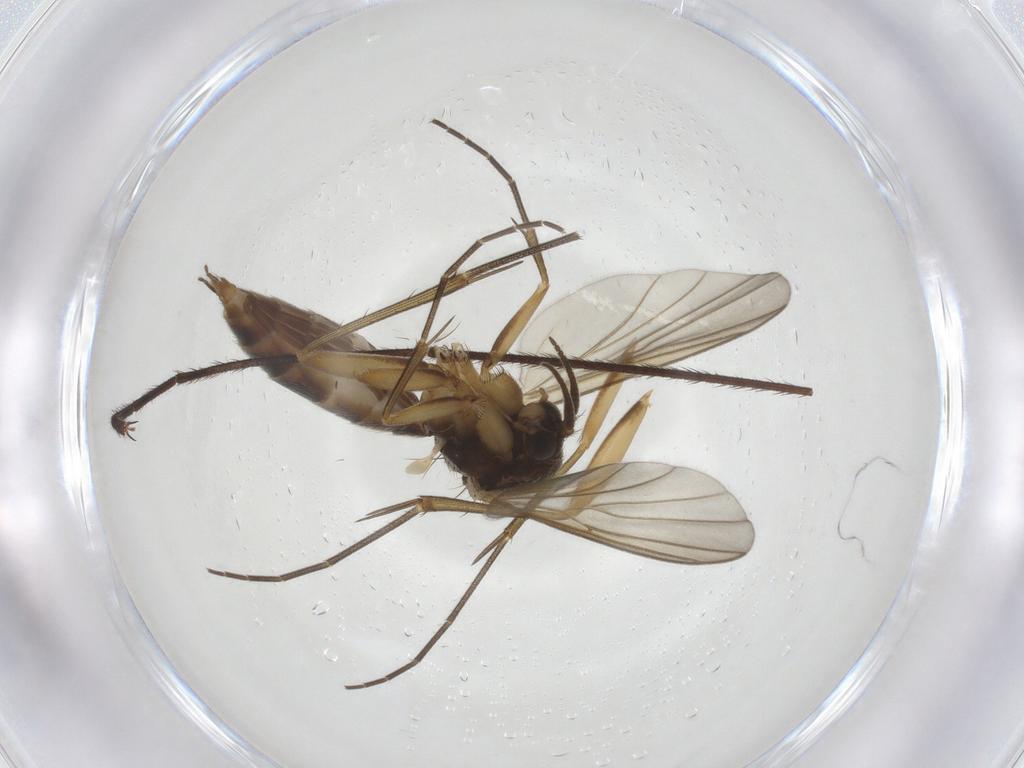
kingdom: Animalia
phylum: Arthropoda
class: Insecta
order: Diptera
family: Mycetophilidae
